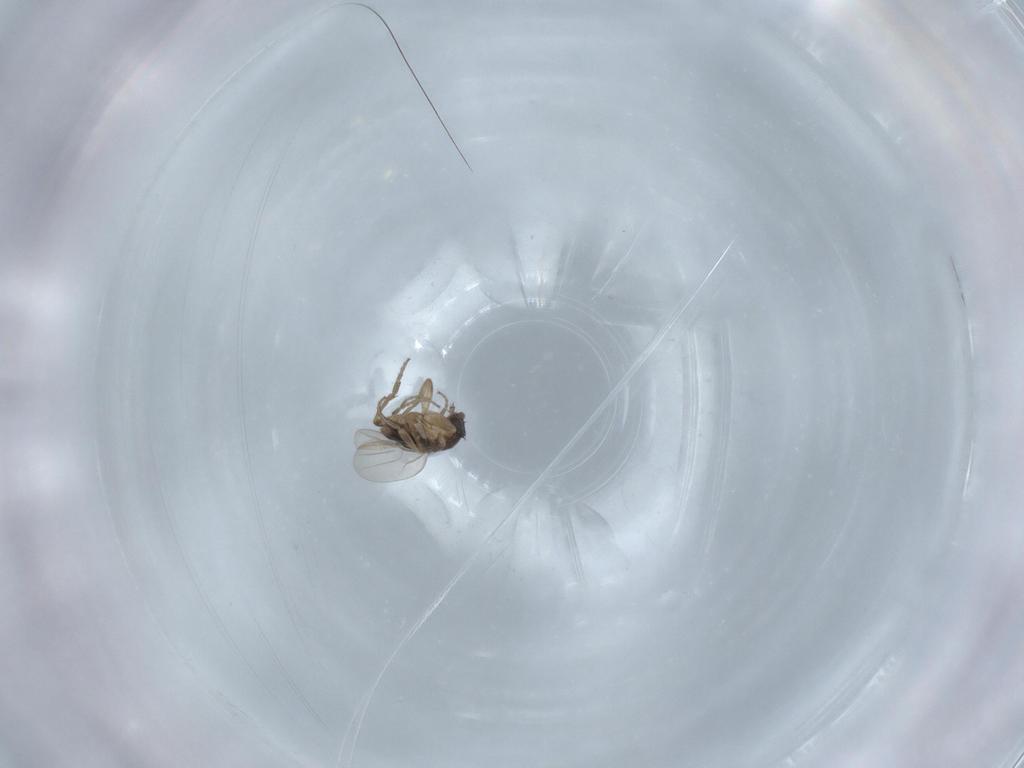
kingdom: Animalia
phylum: Arthropoda
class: Insecta
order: Diptera
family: Phoridae
